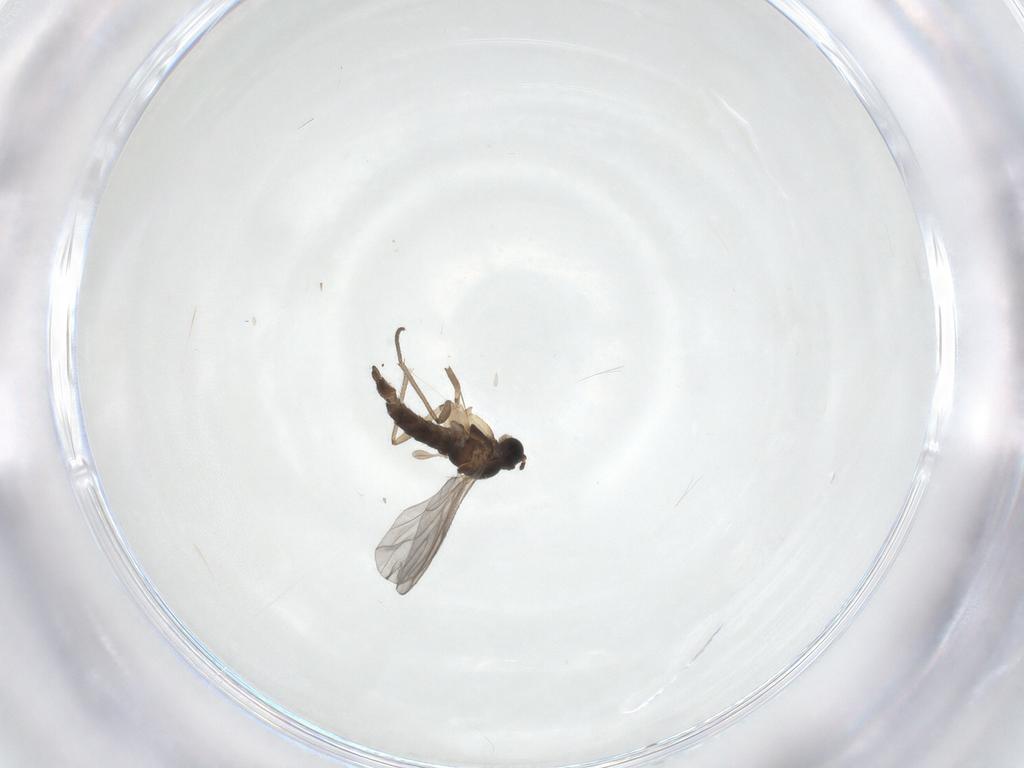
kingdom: Animalia
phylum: Arthropoda
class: Insecta
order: Diptera
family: Sciaridae
